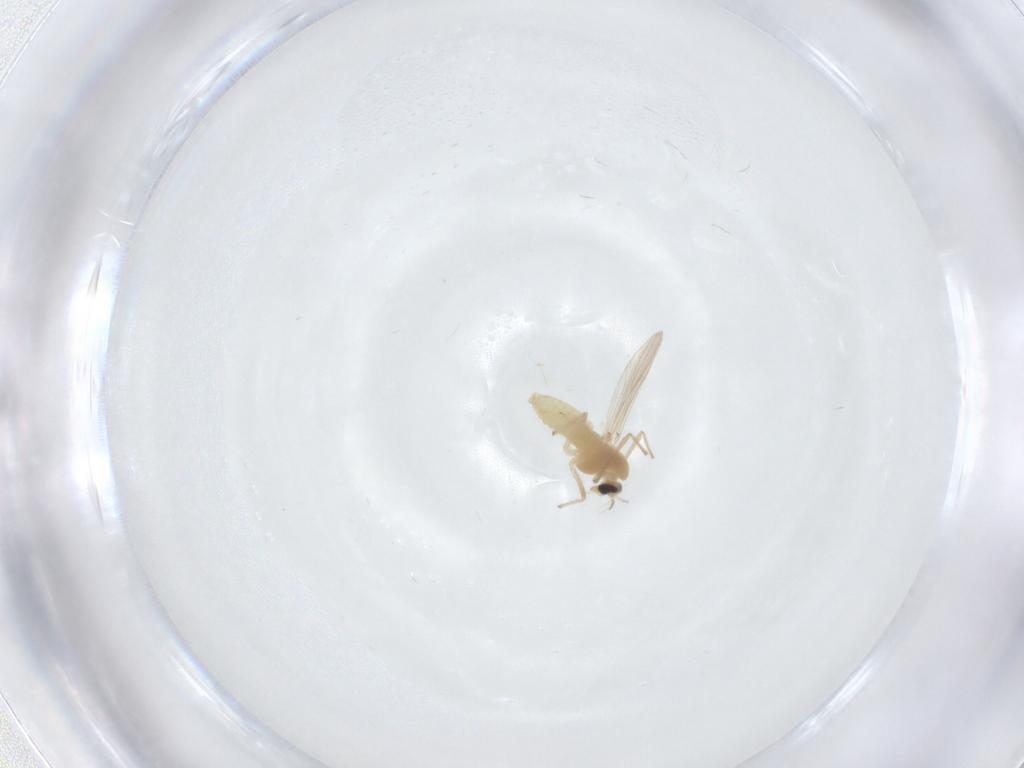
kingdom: Animalia
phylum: Arthropoda
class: Insecta
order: Diptera
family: Chironomidae
